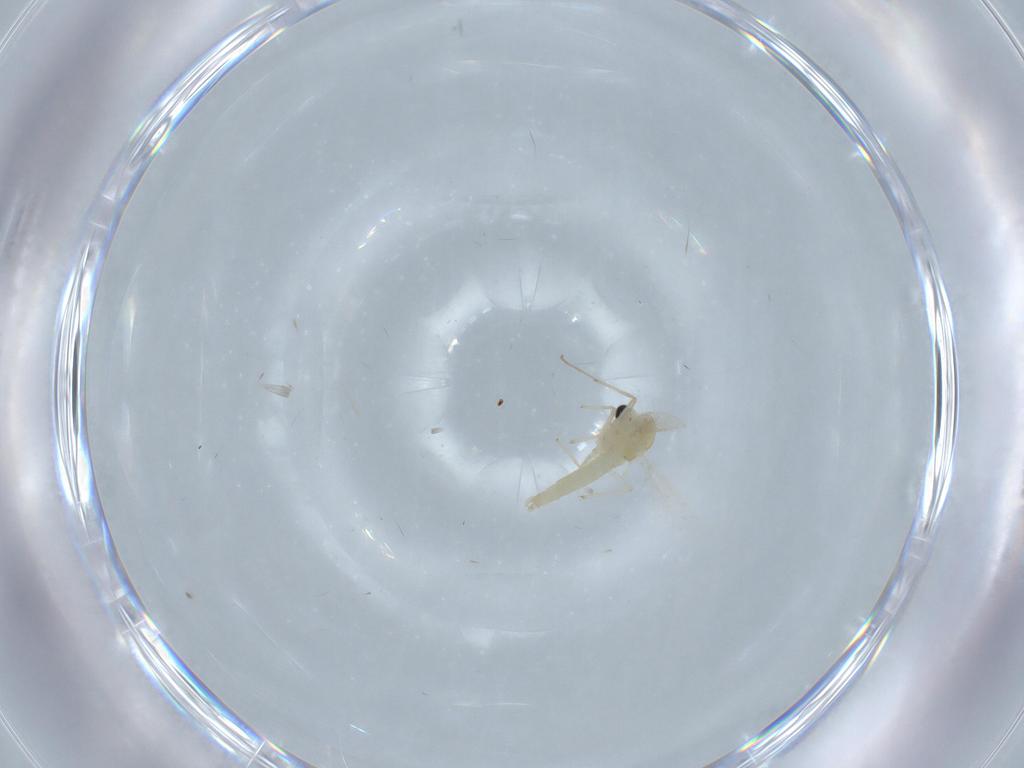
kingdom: Animalia
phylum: Arthropoda
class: Insecta
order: Diptera
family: Chironomidae
